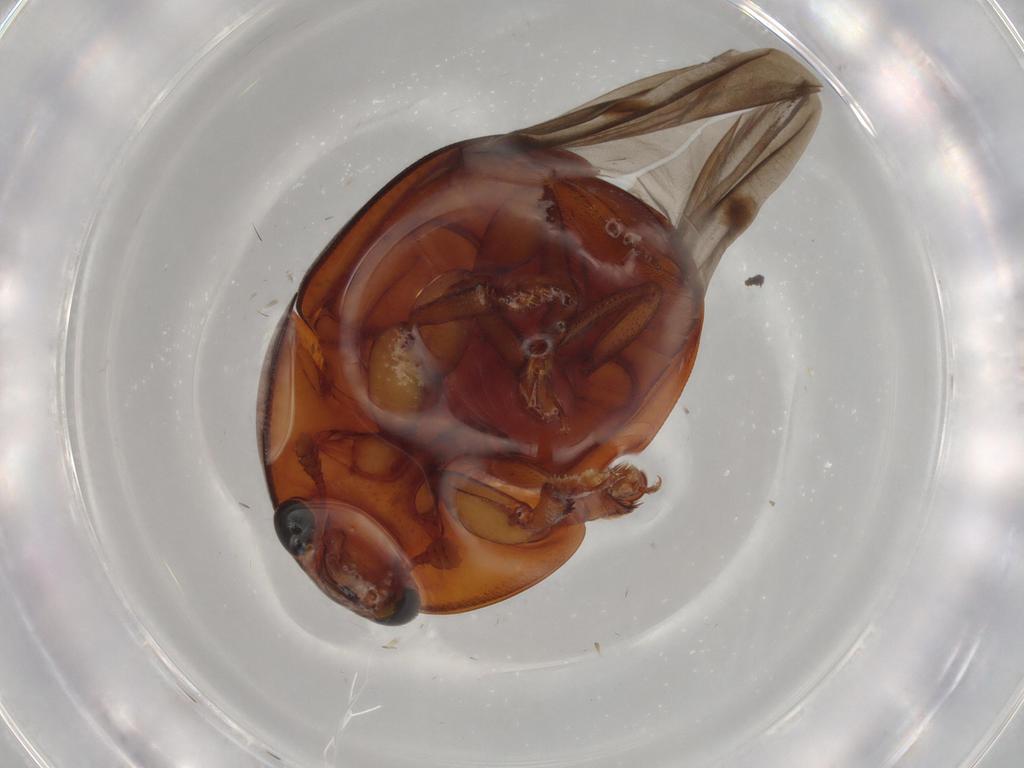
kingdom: Animalia
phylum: Arthropoda
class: Insecta
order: Coleoptera
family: Nitidulidae
